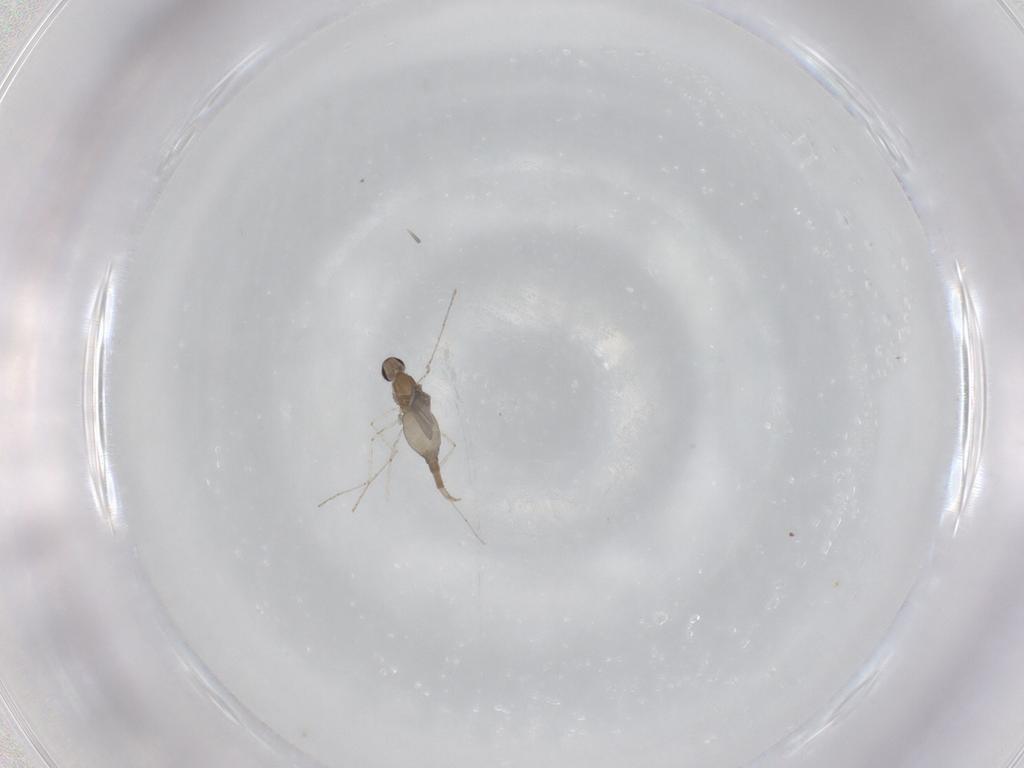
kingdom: Animalia
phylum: Arthropoda
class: Insecta
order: Diptera
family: Cecidomyiidae
